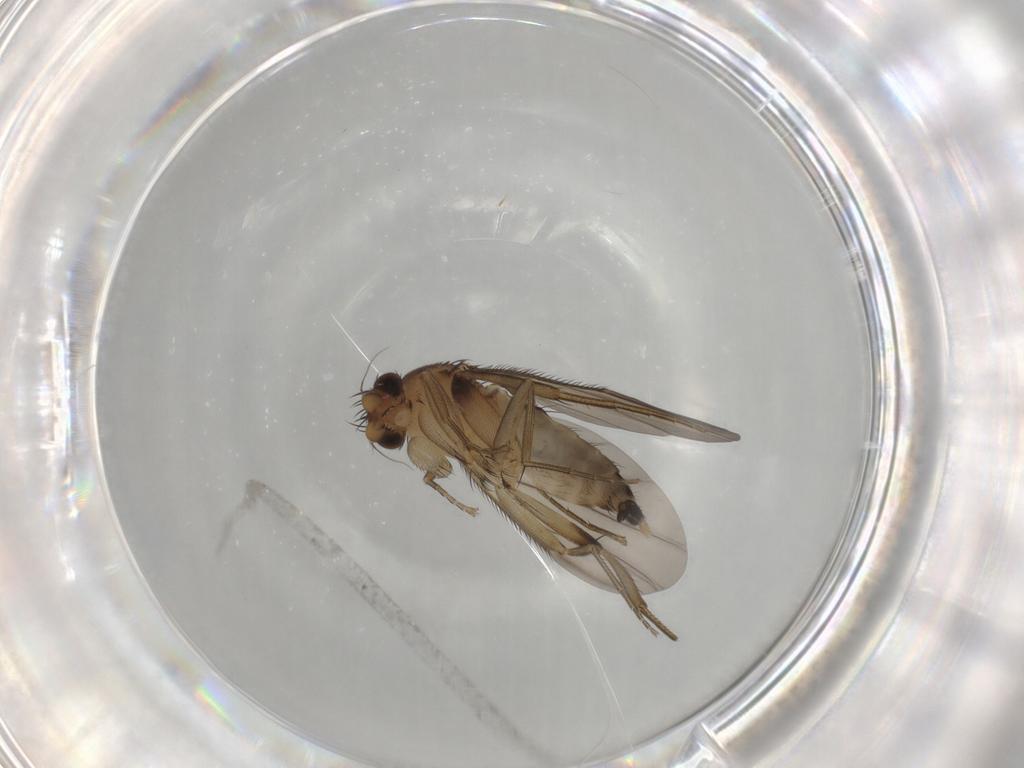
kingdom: Animalia
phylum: Arthropoda
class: Insecta
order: Diptera
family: Phoridae
